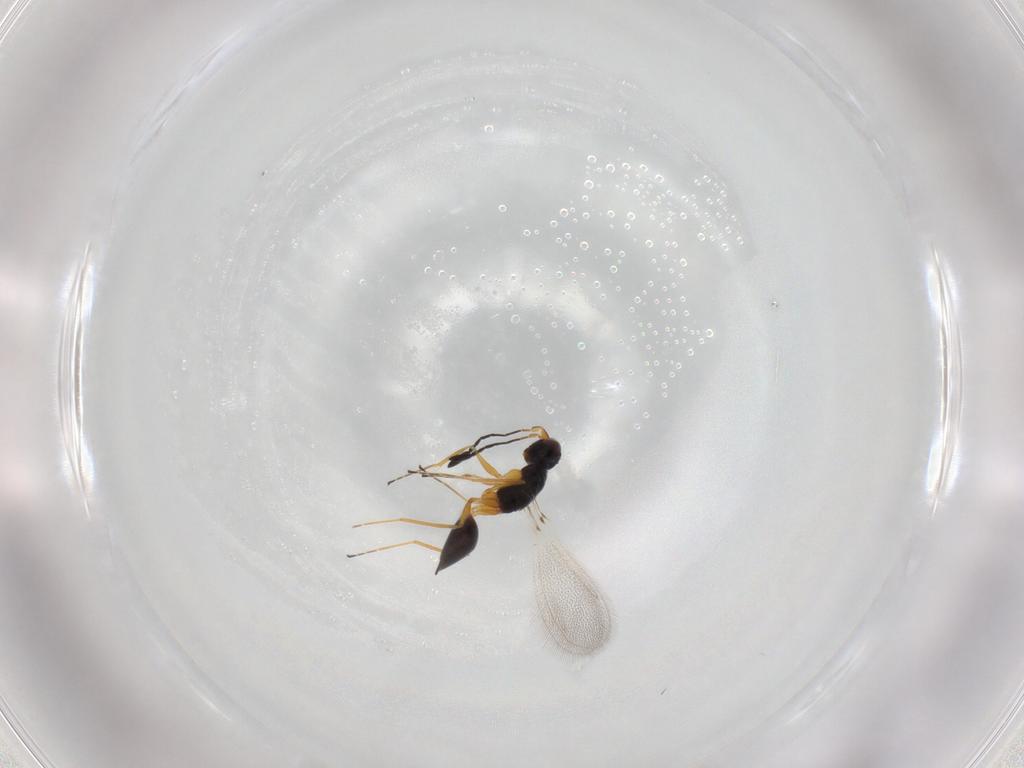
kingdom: Animalia
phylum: Arthropoda
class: Insecta
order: Hymenoptera
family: Mymaridae
